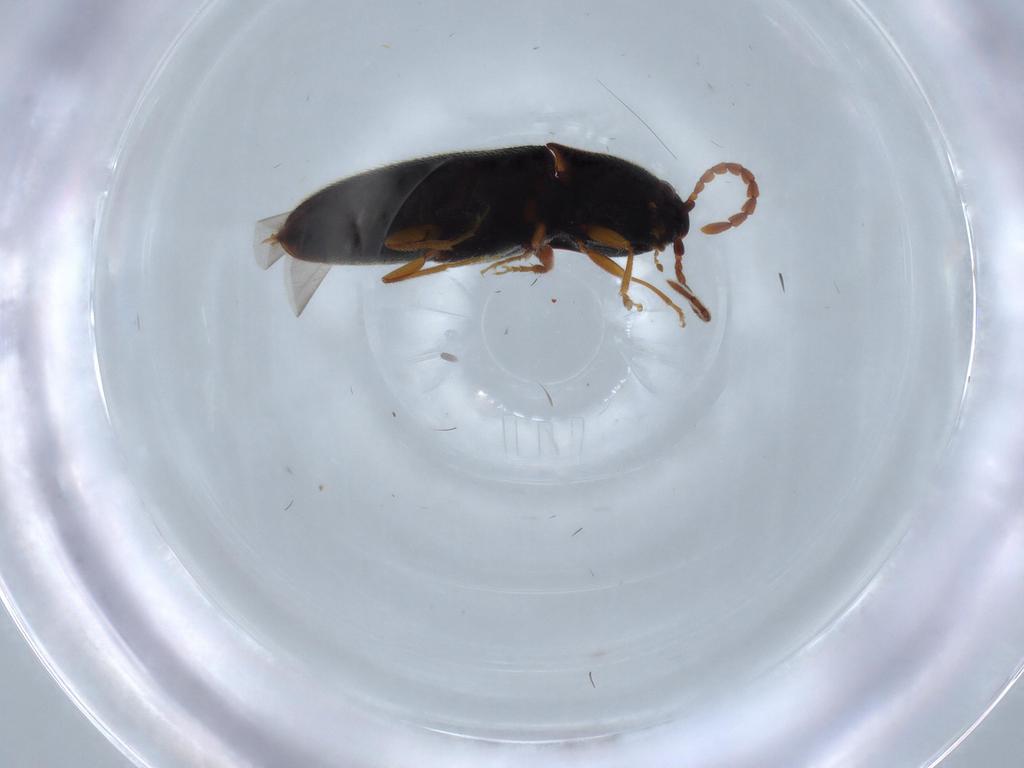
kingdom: Animalia
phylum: Arthropoda
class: Insecta
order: Coleoptera
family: Elateridae
